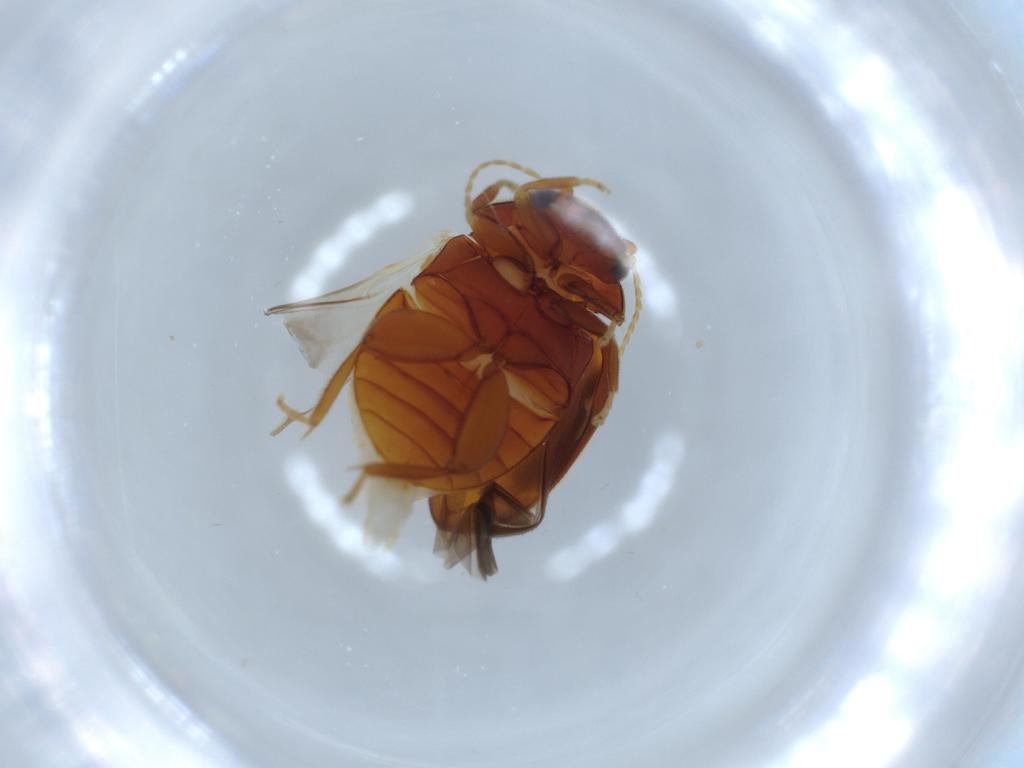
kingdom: Animalia
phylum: Arthropoda
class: Insecta
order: Coleoptera
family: Scirtidae
